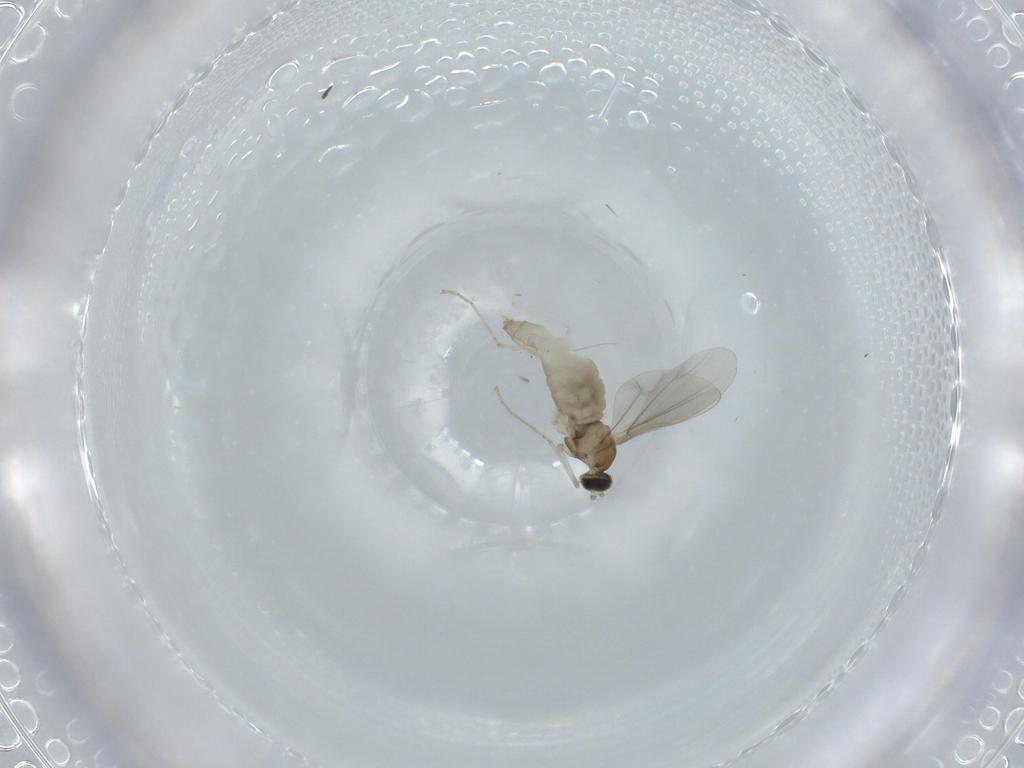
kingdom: Animalia
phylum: Arthropoda
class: Insecta
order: Diptera
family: Cecidomyiidae
